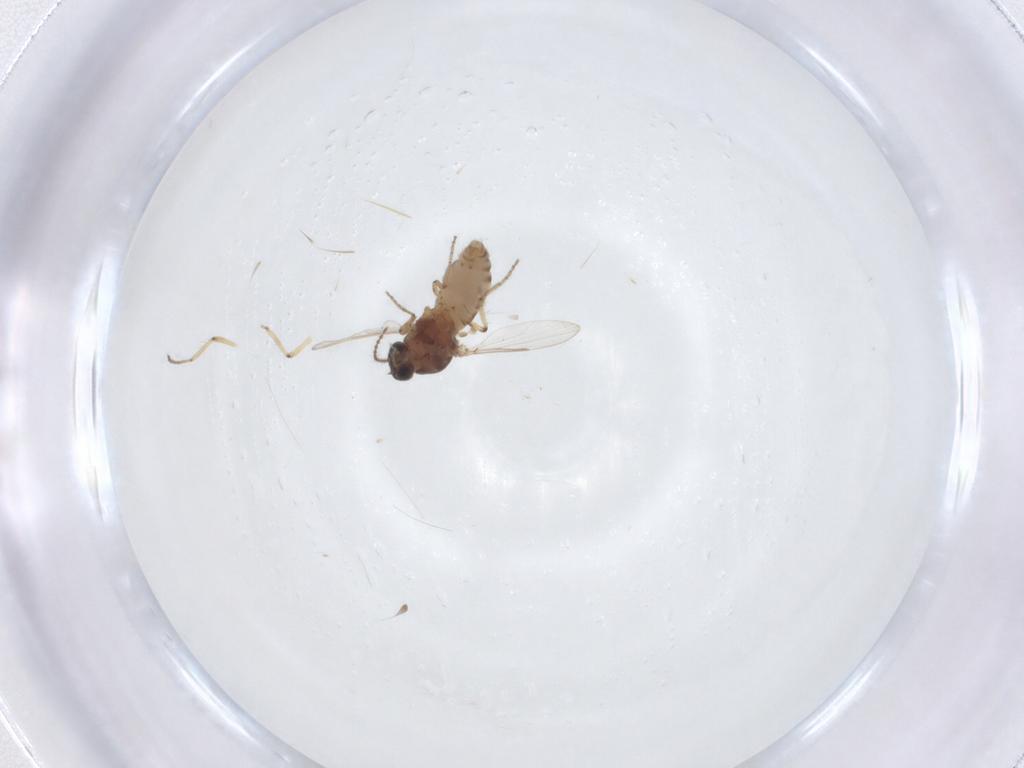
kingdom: Animalia
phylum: Arthropoda
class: Insecta
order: Diptera
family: Ceratopogonidae
